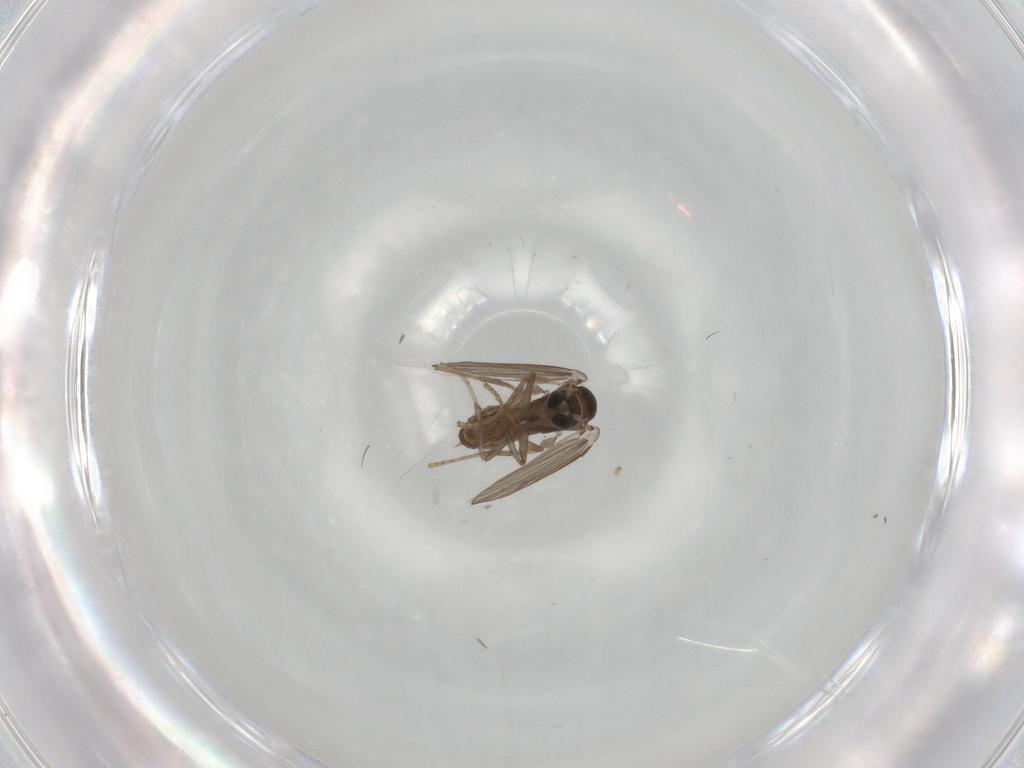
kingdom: Animalia
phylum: Arthropoda
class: Insecta
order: Diptera
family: Psychodidae
